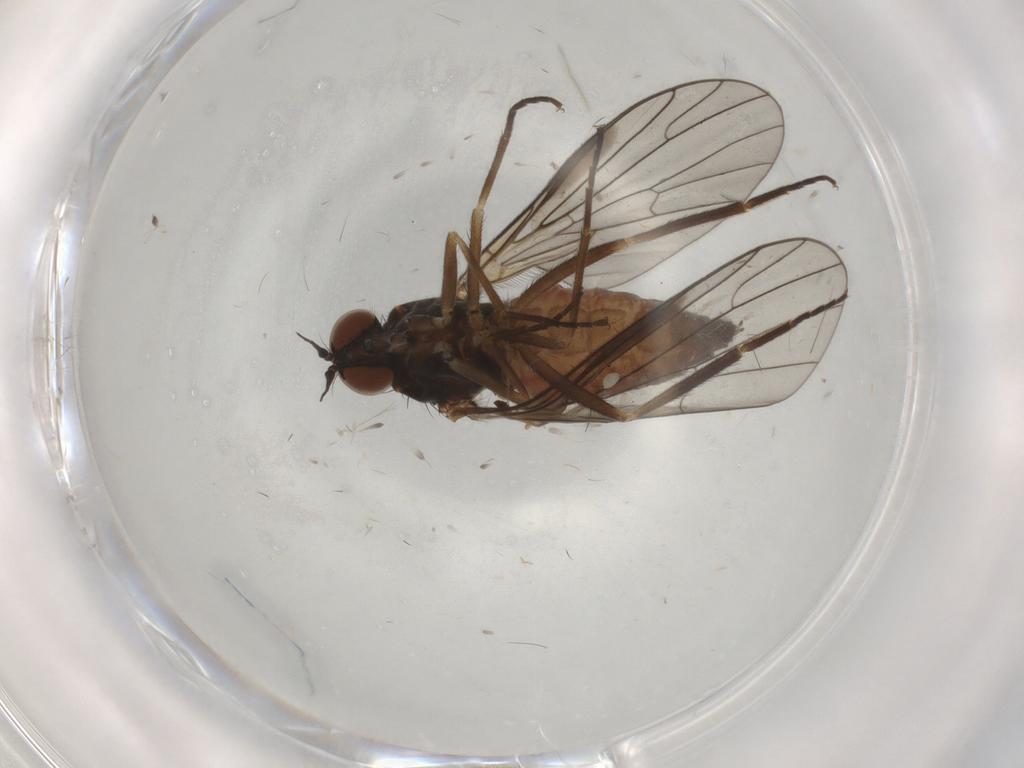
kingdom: Animalia
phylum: Arthropoda
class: Insecta
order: Diptera
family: Empididae
